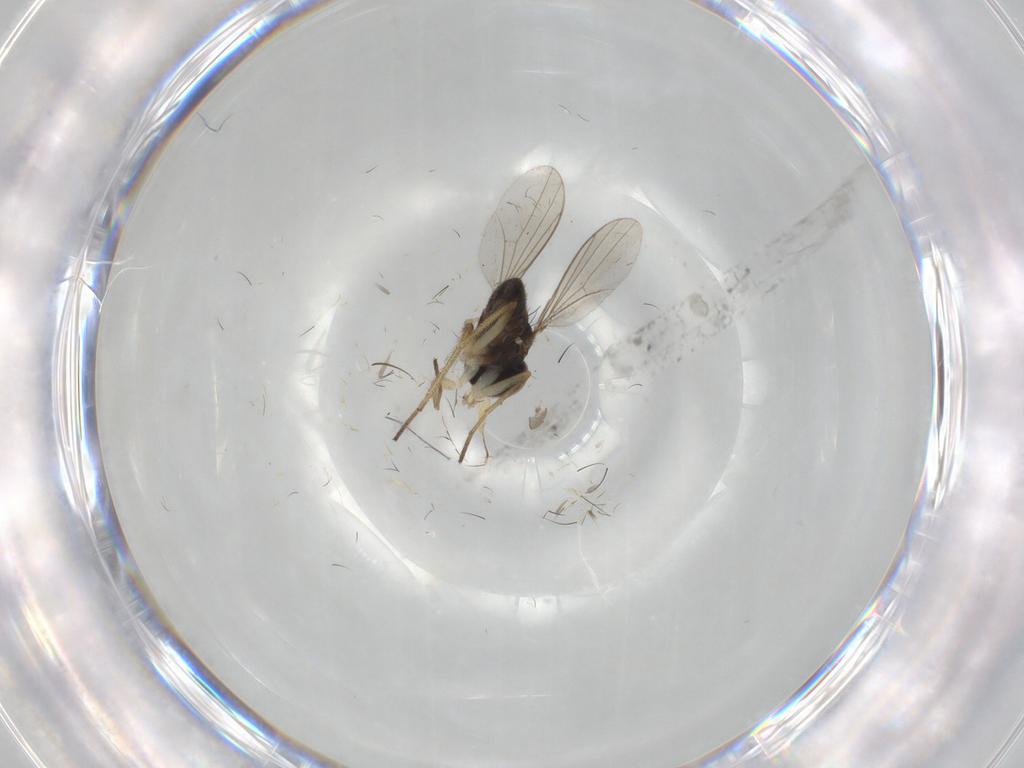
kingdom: Animalia
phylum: Arthropoda
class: Insecta
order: Diptera
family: Dolichopodidae
